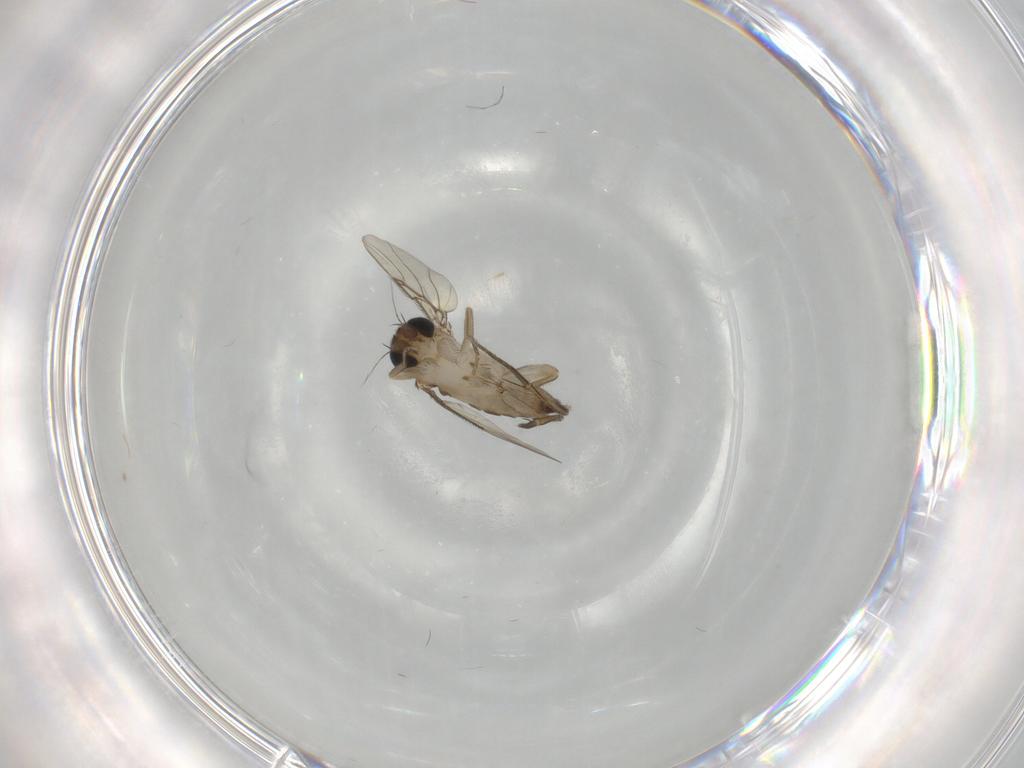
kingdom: Animalia
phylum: Arthropoda
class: Insecta
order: Diptera
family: Phoridae
